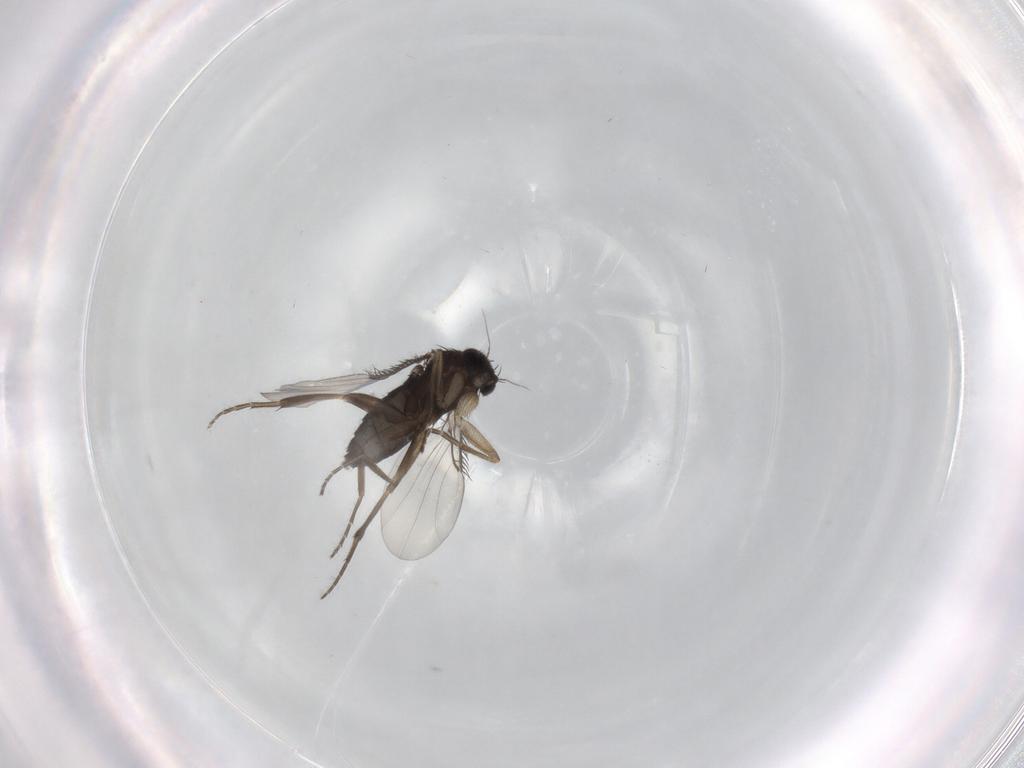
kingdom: Animalia
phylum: Arthropoda
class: Insecta
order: Diptera
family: Phoridae
